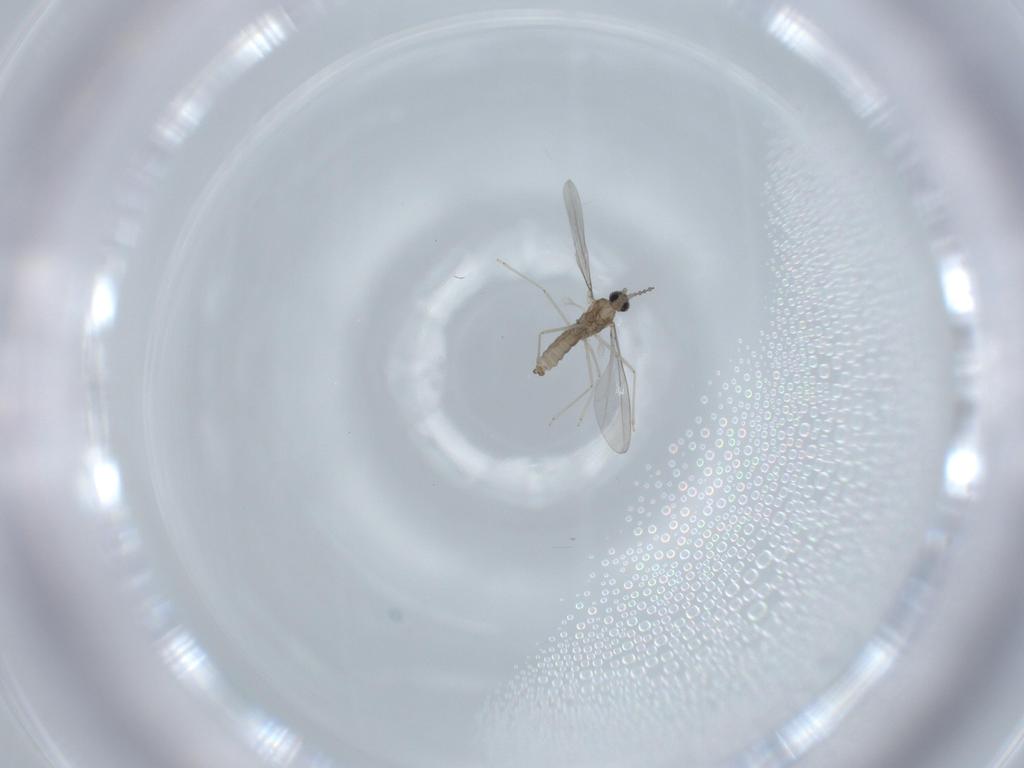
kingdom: Animalia
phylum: Arthropoda
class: Insecta
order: Diptera
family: Cecidomyiidae
